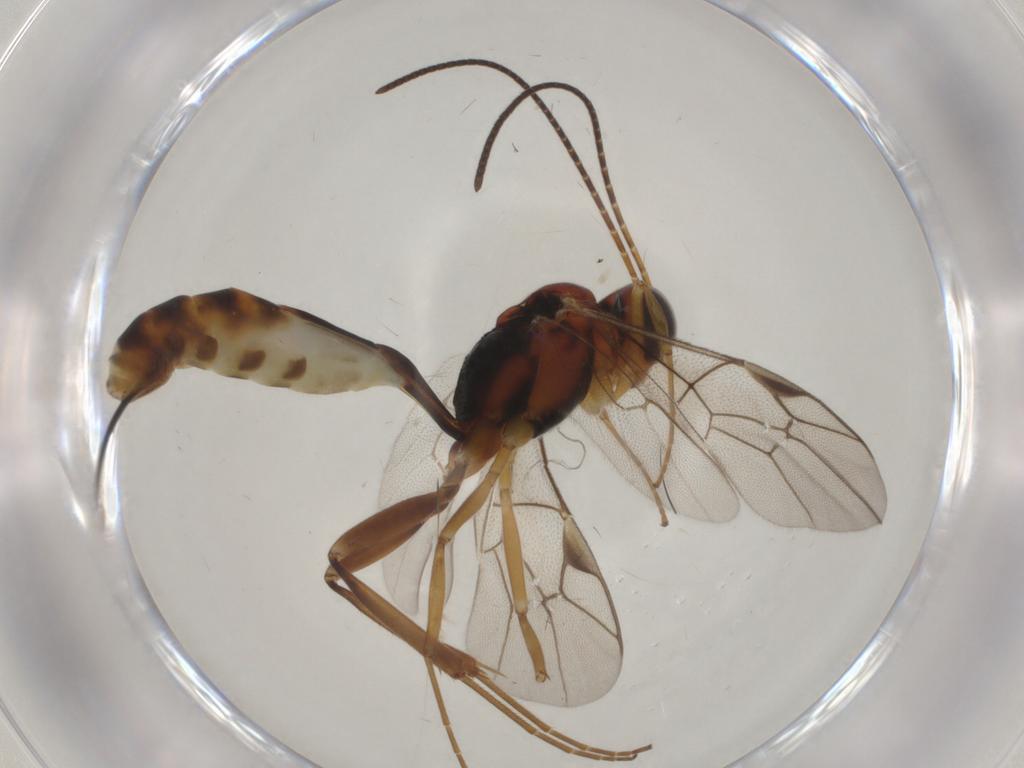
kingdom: Animalia
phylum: Arthropoda
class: Insecta
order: Hymenoptera
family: Ichneumonidae
